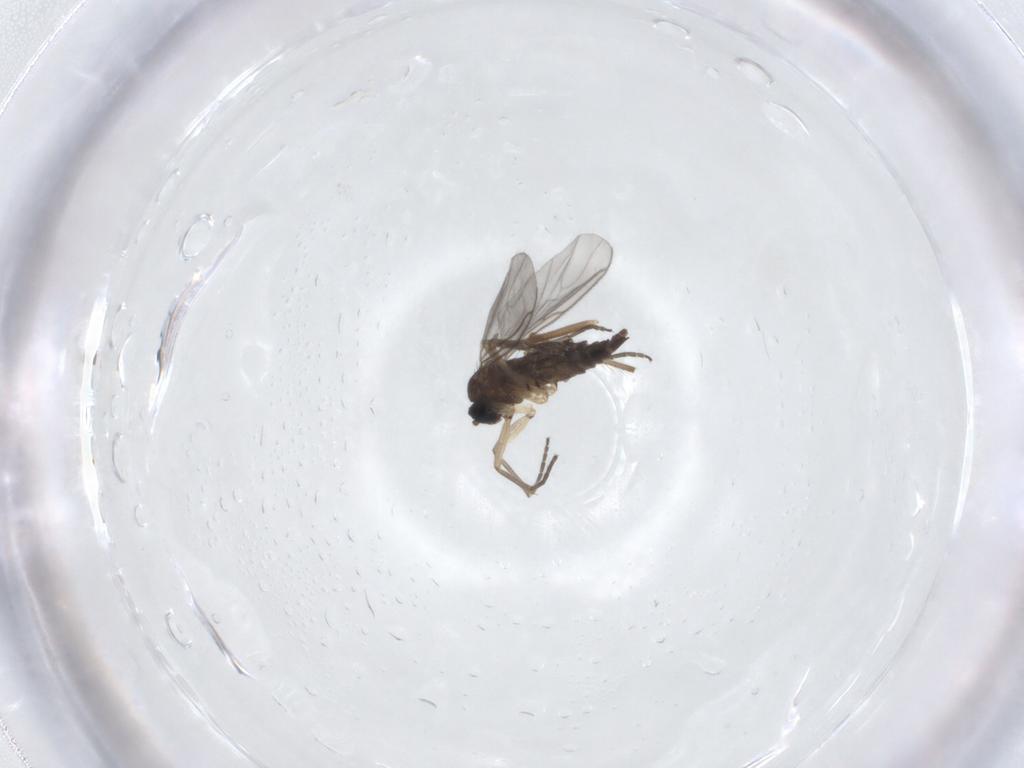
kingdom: Animalia
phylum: Arthropoda
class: Insecta
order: Diptera
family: Sciaridae
